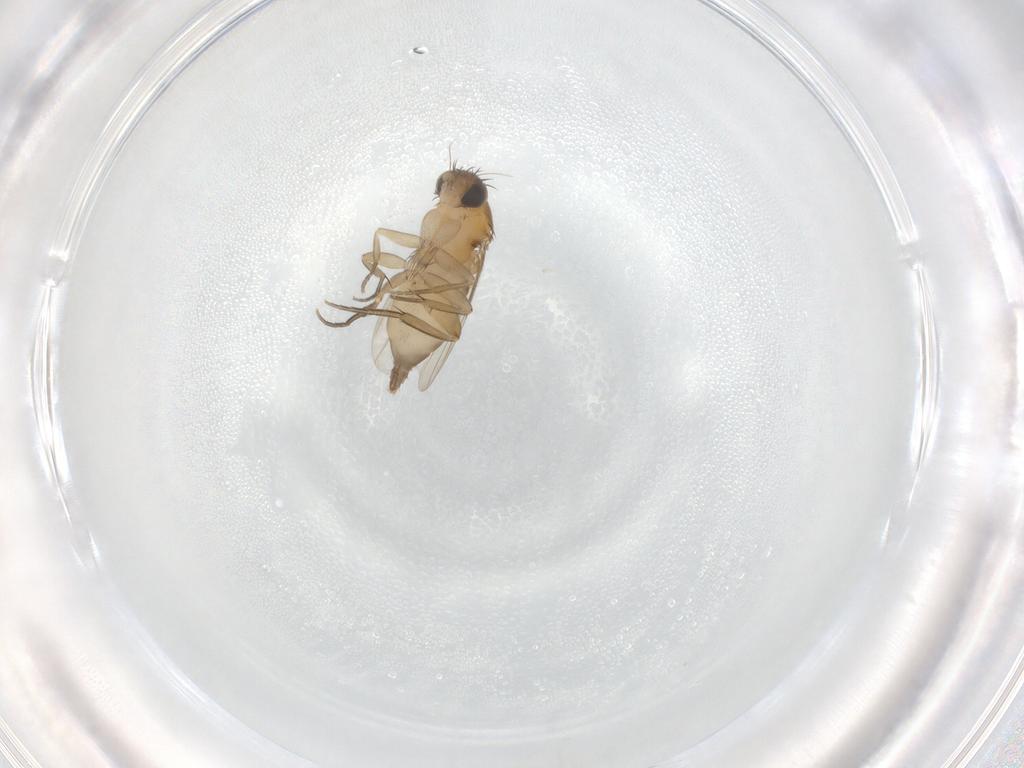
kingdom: Animalia
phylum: Arthropoda
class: Insecta
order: Diptera
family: Phoridae
